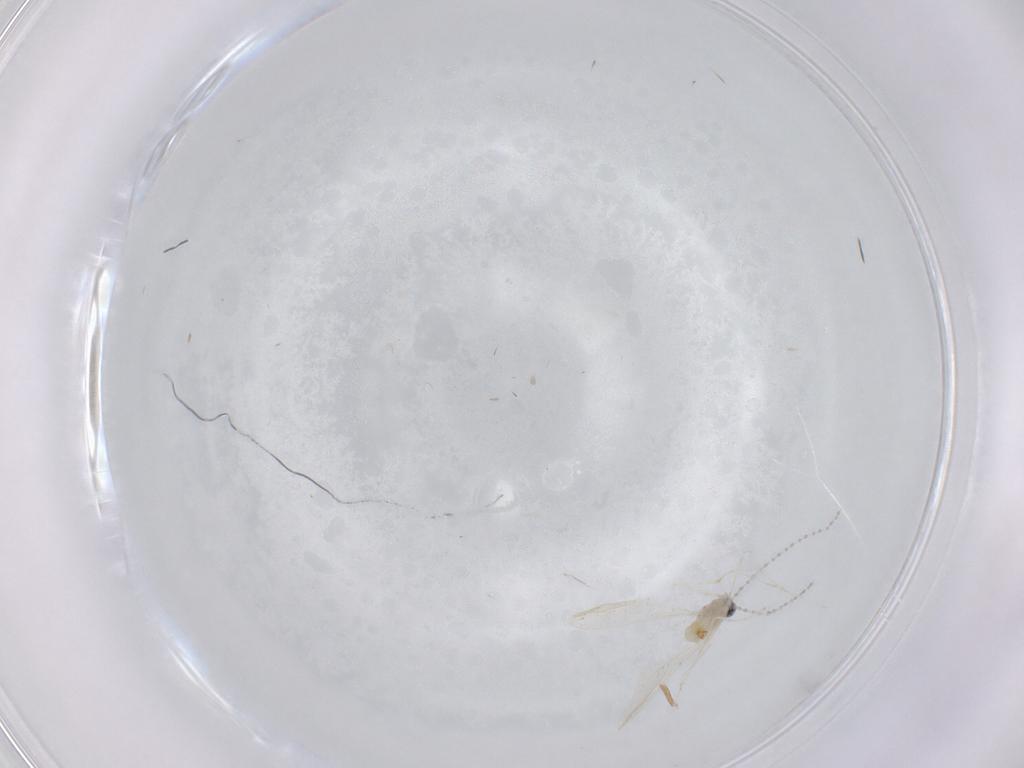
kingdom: Animalia
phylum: Arthropoda
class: Insecta
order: Diptera
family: Cecidomyiidae
